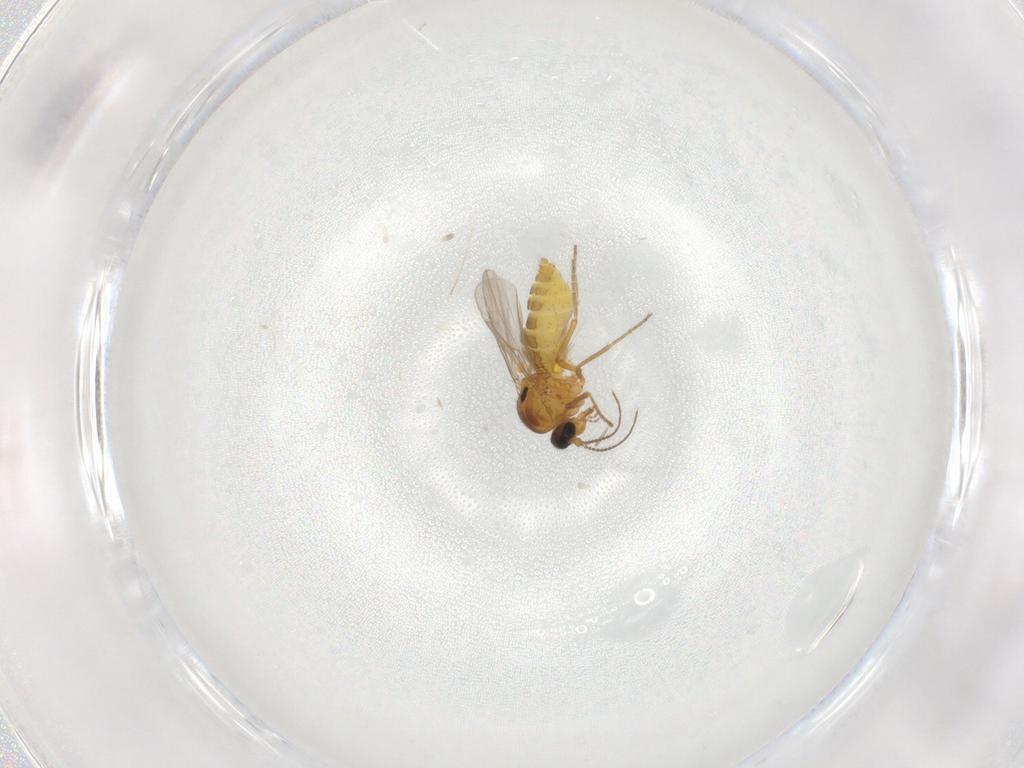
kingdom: Animalia
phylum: Arthropoda
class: Insecta
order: Diptera
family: Ceratopogonidae
